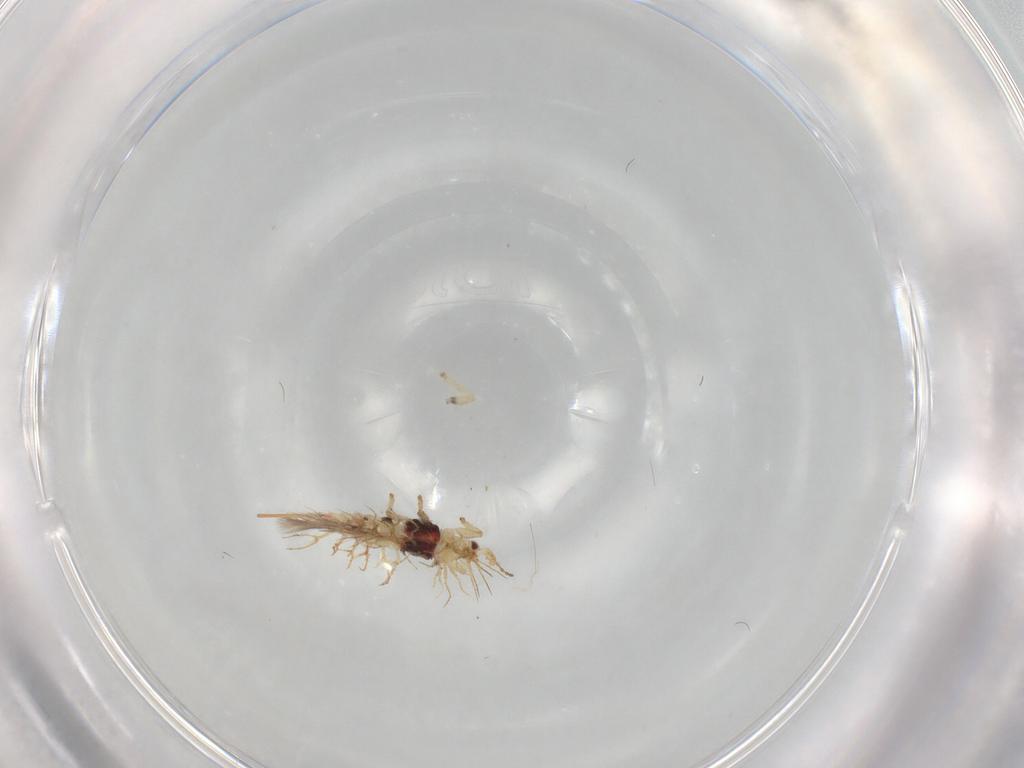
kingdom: Animalia
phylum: Arthropoda
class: Insecta
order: Thysanoptera
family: Phlaeothripidae
